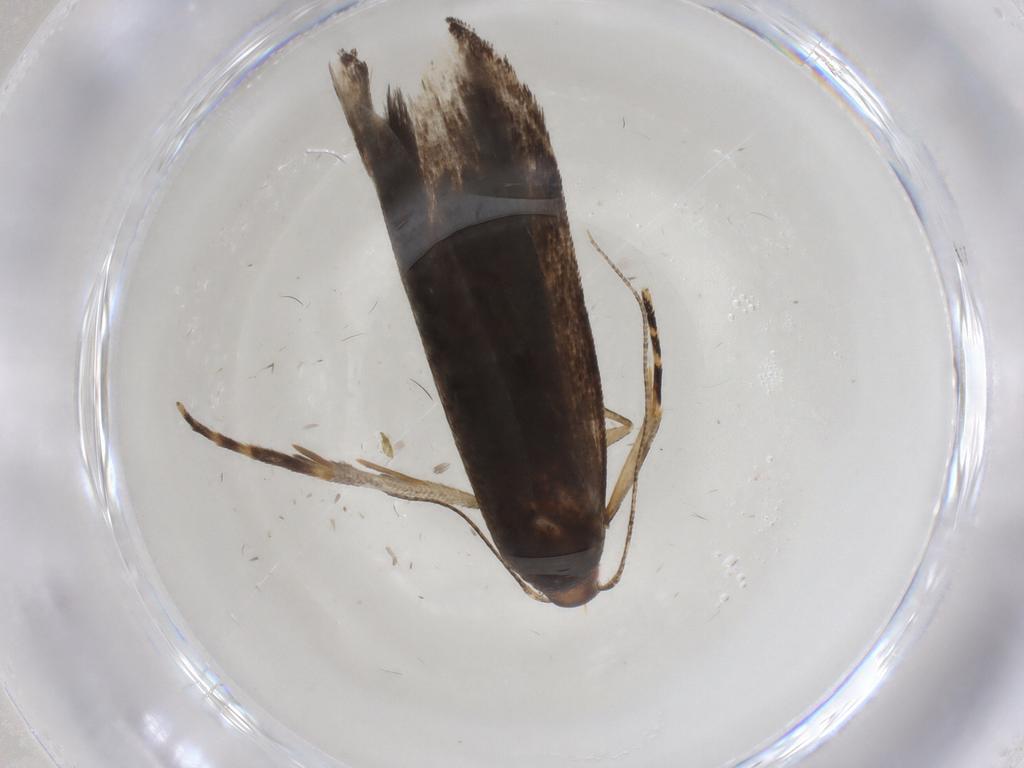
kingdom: Animalia
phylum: Arthropoda
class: Insecta
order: Lepidoptera
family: Gelechiidae
